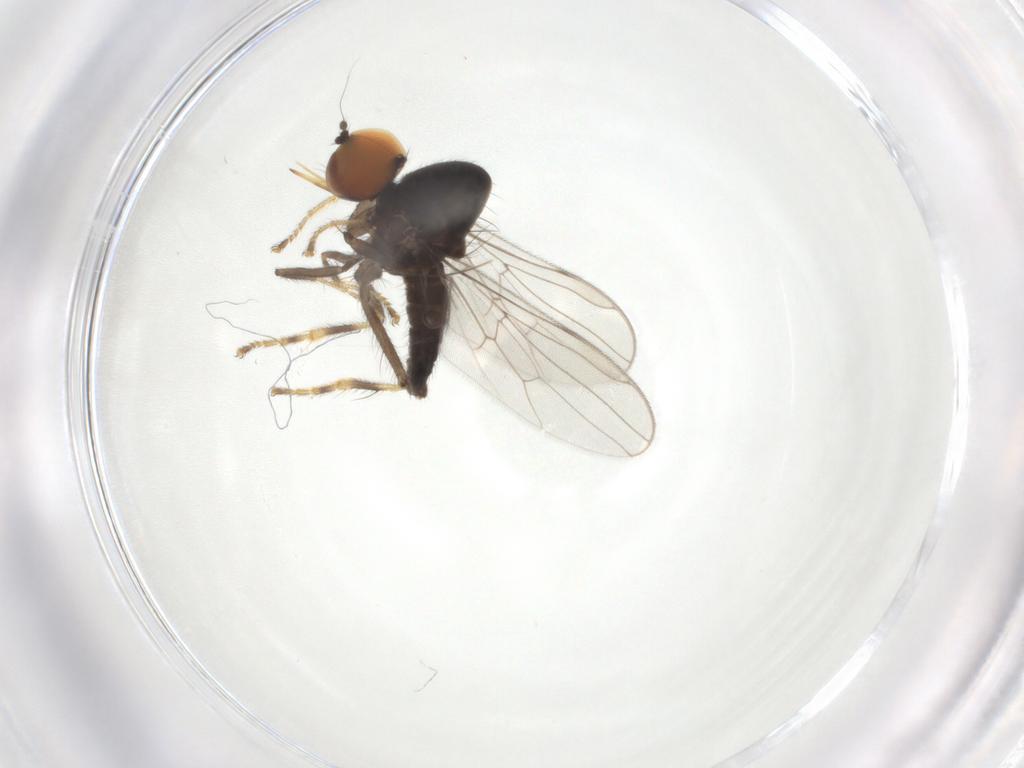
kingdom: Animalia
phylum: Arthropoda
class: Insecta
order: Diptera
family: Hybotidae
